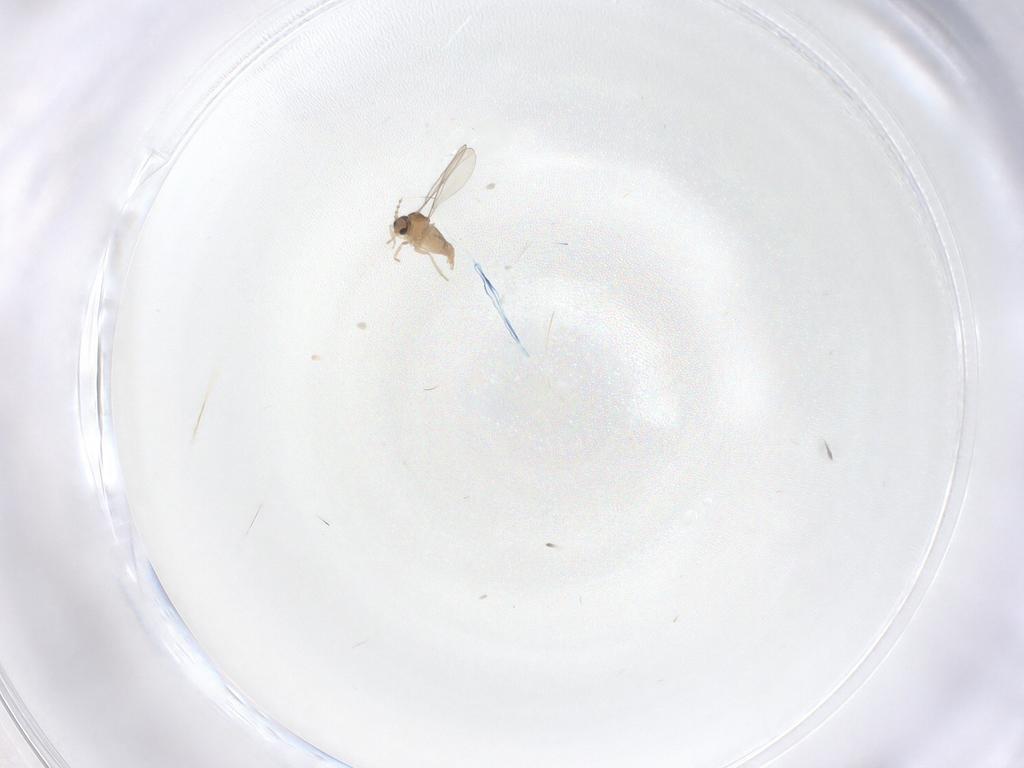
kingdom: Animalia
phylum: Arthropoda
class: Insecta
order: Diptera
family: Cecidomyiidae
